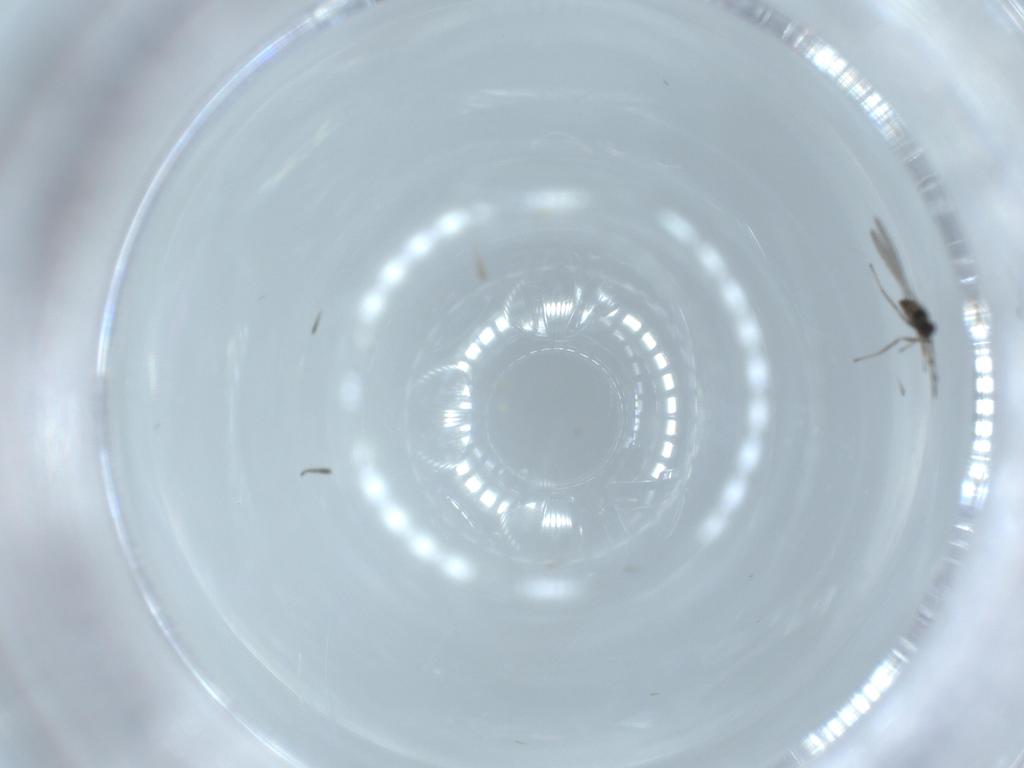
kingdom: Animalia
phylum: Arthropoda
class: Insecta
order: Hymenoptera
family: Mymaridae
